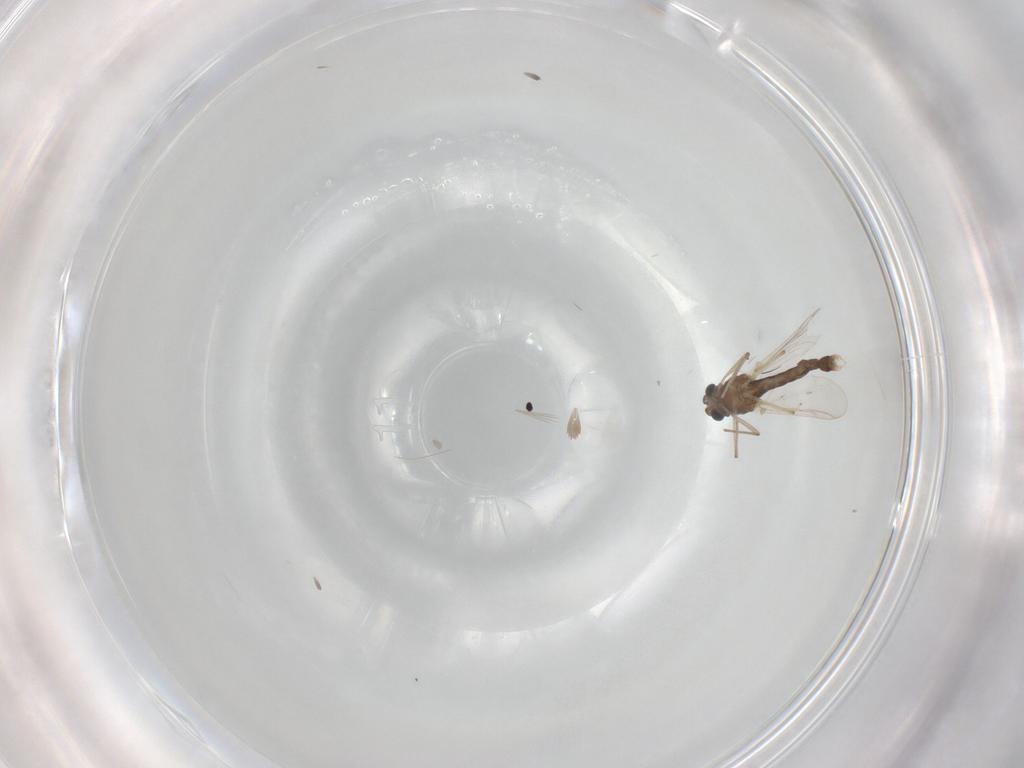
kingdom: Animalia
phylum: Arthropoda
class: Insecta
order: Diptera
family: Chironomidae
